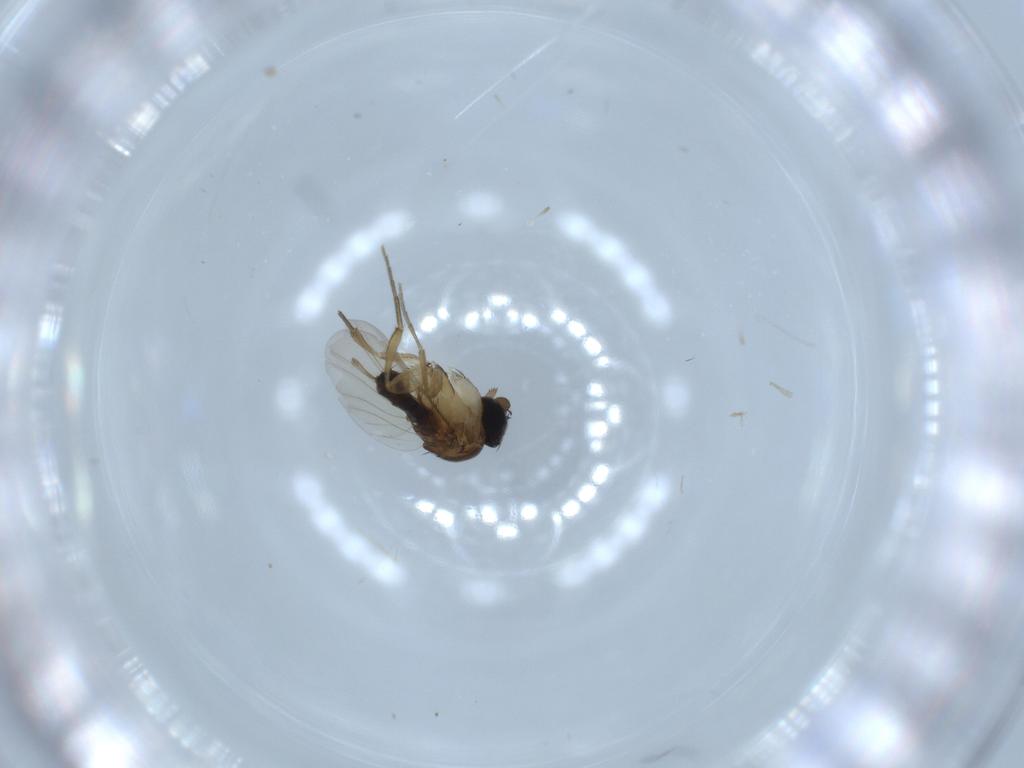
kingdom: Animalia
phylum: Arthropoda
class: Insecta
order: Diptera
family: Phoridae
